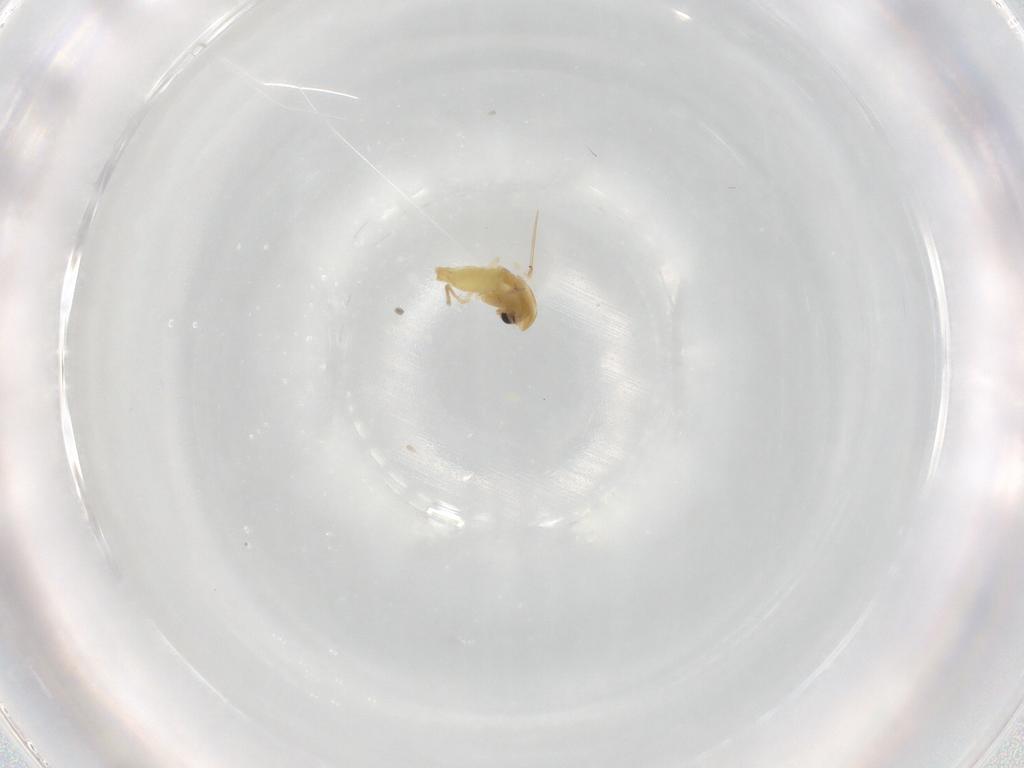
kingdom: Animalia
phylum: Arthropoda
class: Insecta
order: Diptera
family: Chironomidae
